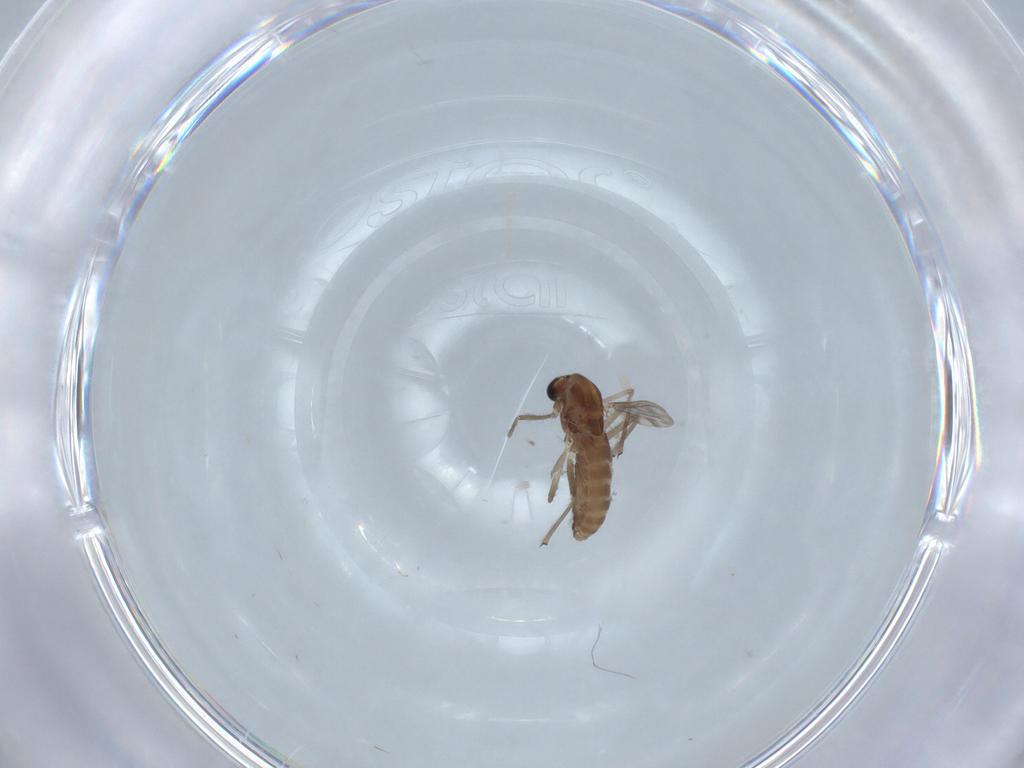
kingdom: Animalia
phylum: Arthropoda
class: Insecta
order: Diptera
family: Chironomidae
